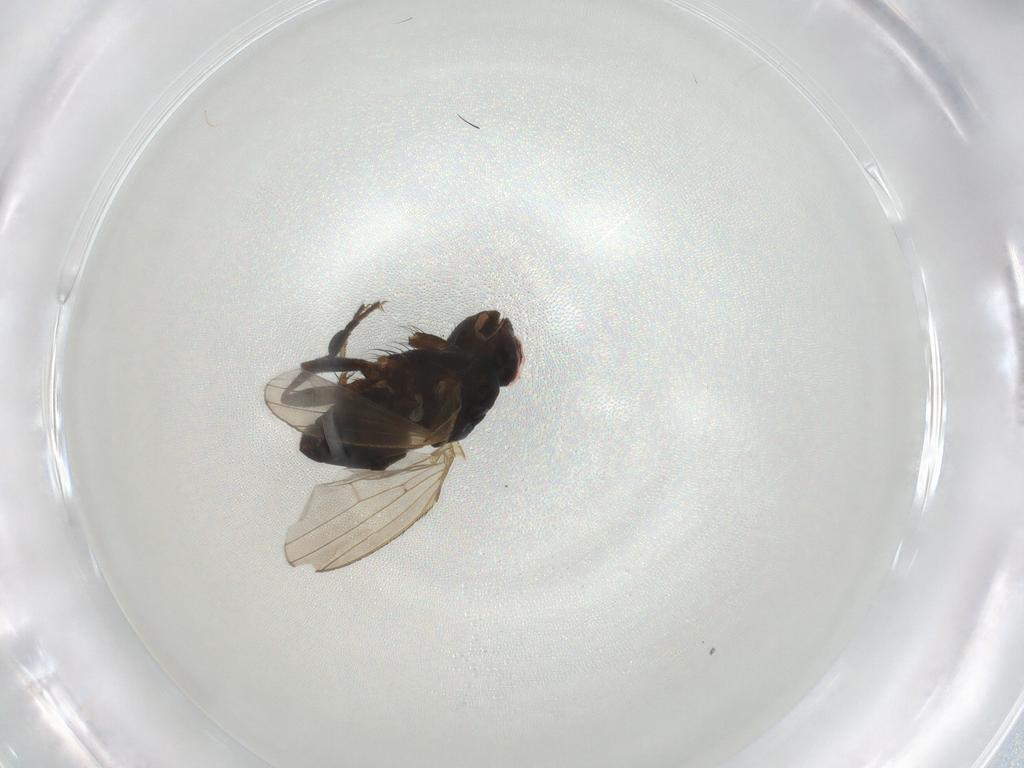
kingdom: Animalia
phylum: Arthropoda
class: Insecta
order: Diptera
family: Heleomyzidae
